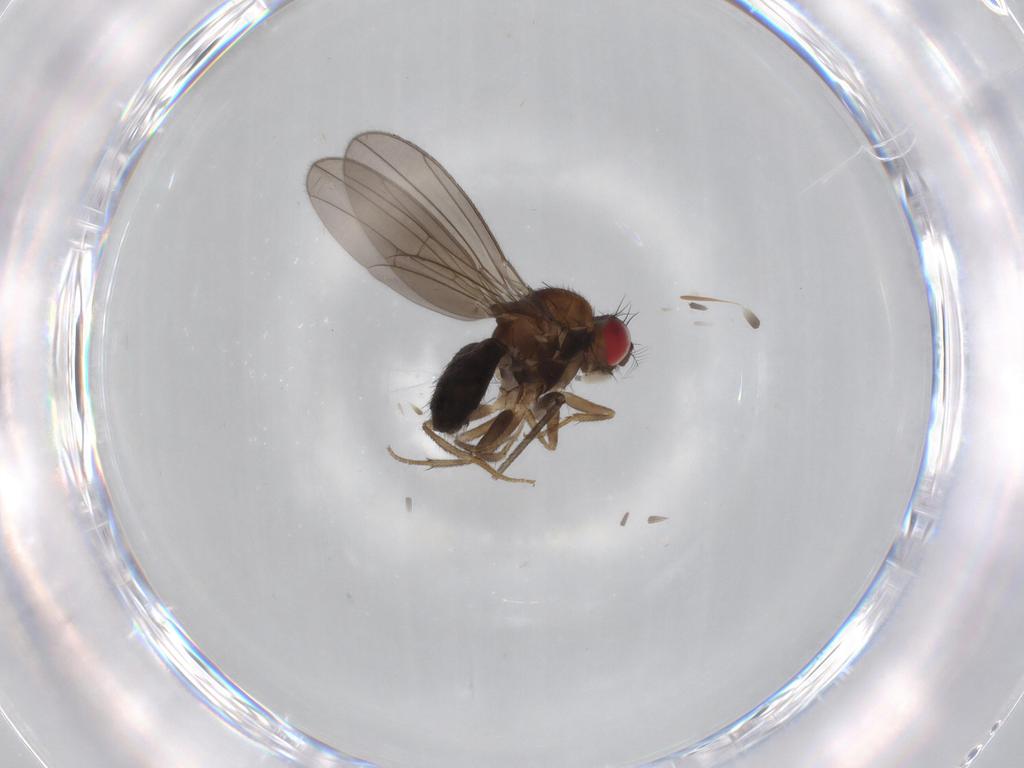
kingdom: Animalia
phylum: Arthropoda
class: Insecta
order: Diptera
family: Drosophilidae
